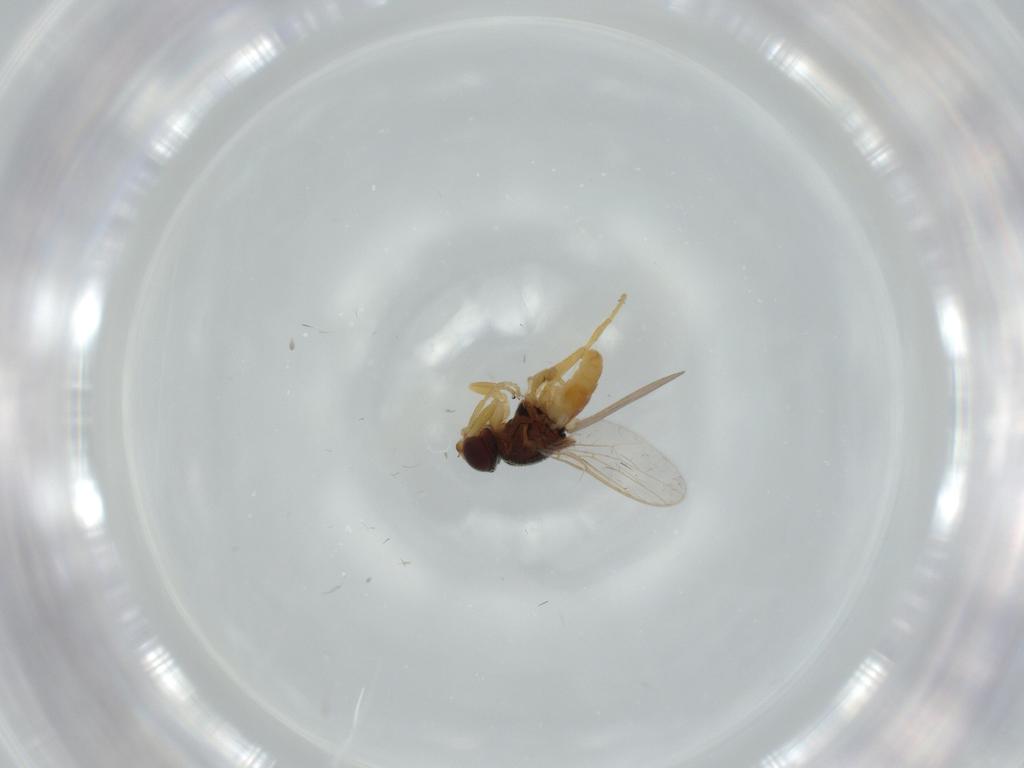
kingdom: Animalia
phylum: Arthropoda
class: Insecta
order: Diptera
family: Chloropidae
